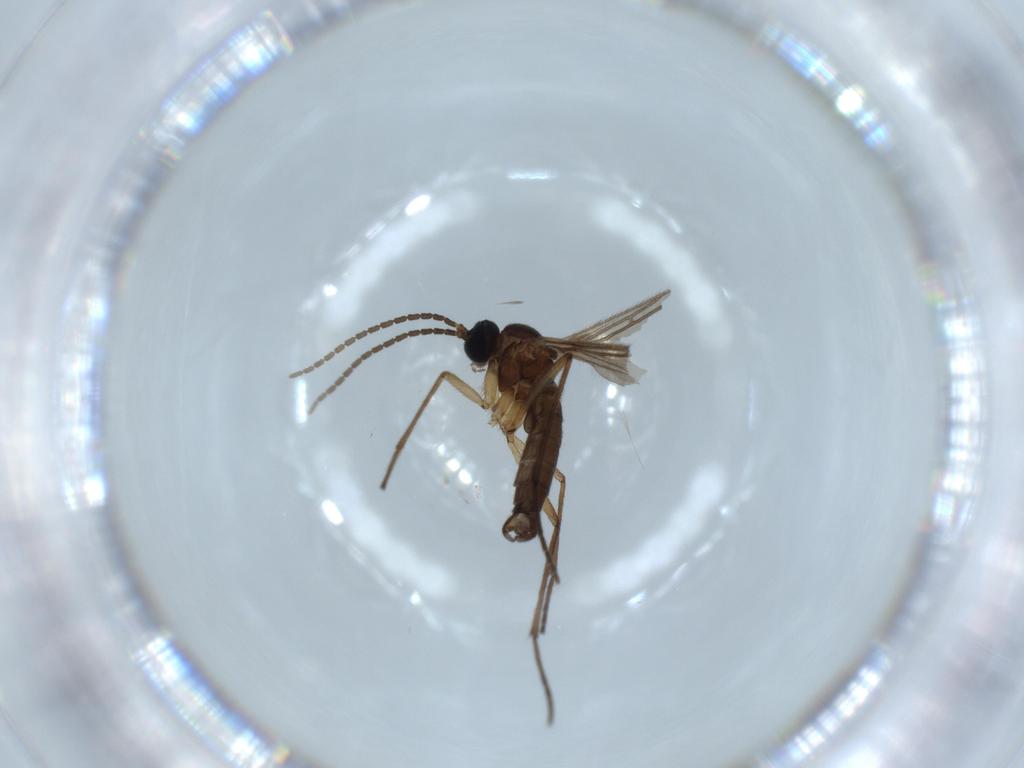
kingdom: Animalia
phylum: Arthropoda
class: Insecta
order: Diptera
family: Sciaridae
